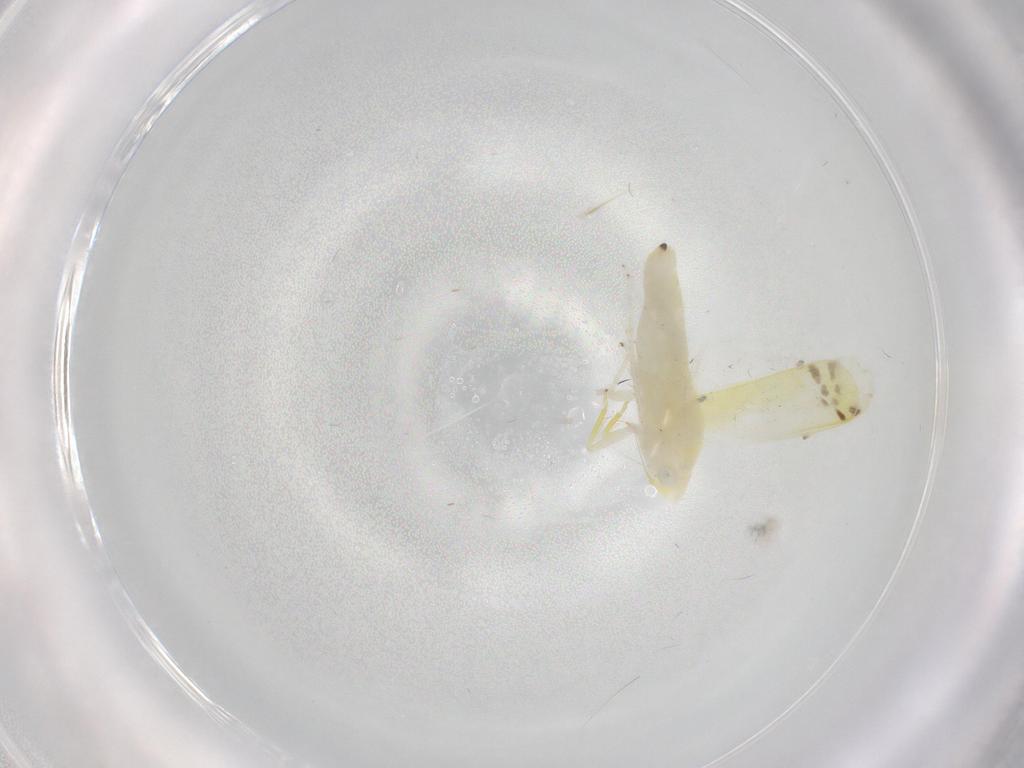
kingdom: Animalia
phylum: Arthropoda
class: Insecta
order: Hemiptera
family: Cicadellidae
